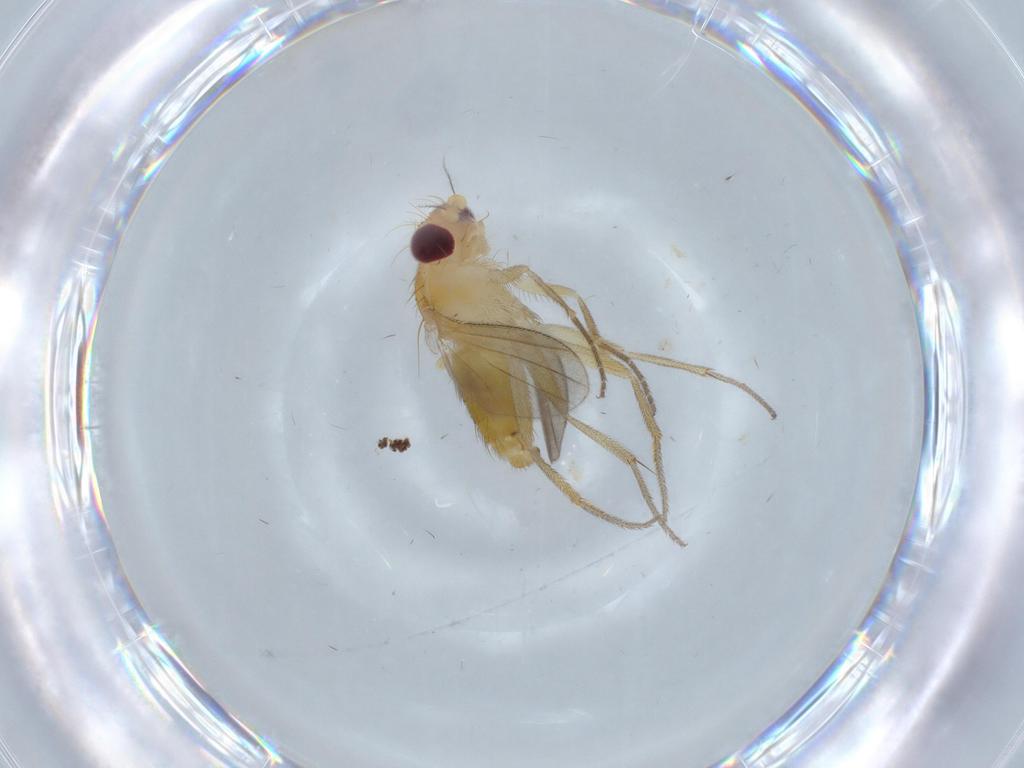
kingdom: Animalia
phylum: Arthropoda
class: Insecta
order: Diptera
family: Clusiidae
